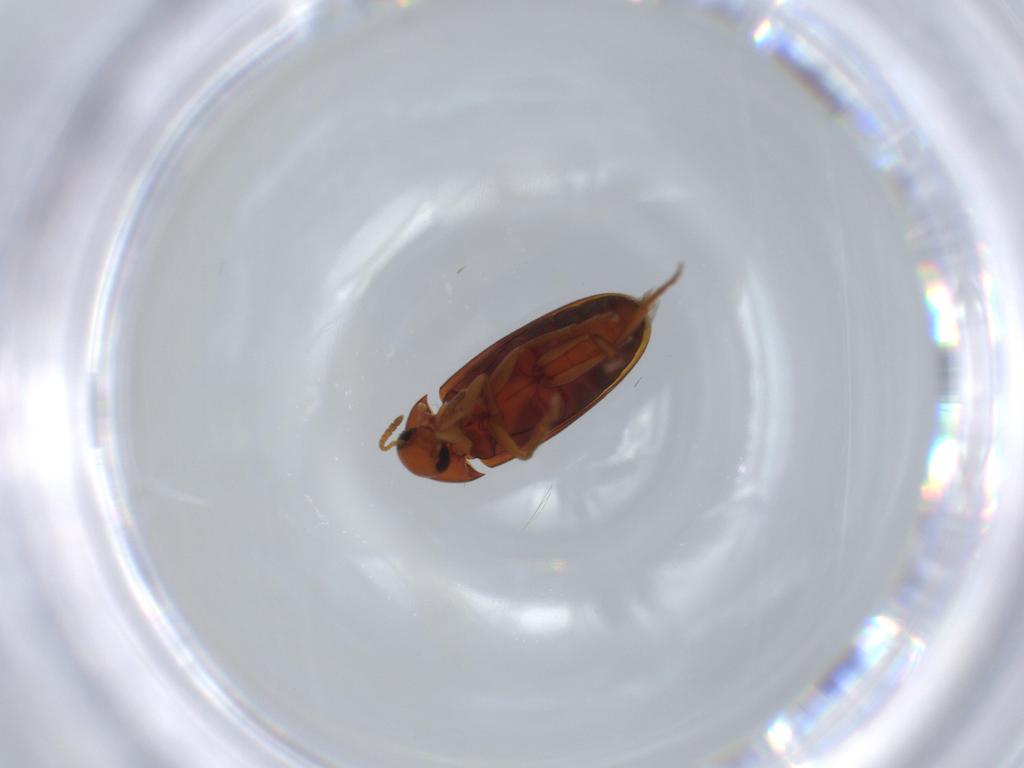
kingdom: Animalia
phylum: Arthropoda
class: Insecta
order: Coleoptera
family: Scraptiidae
